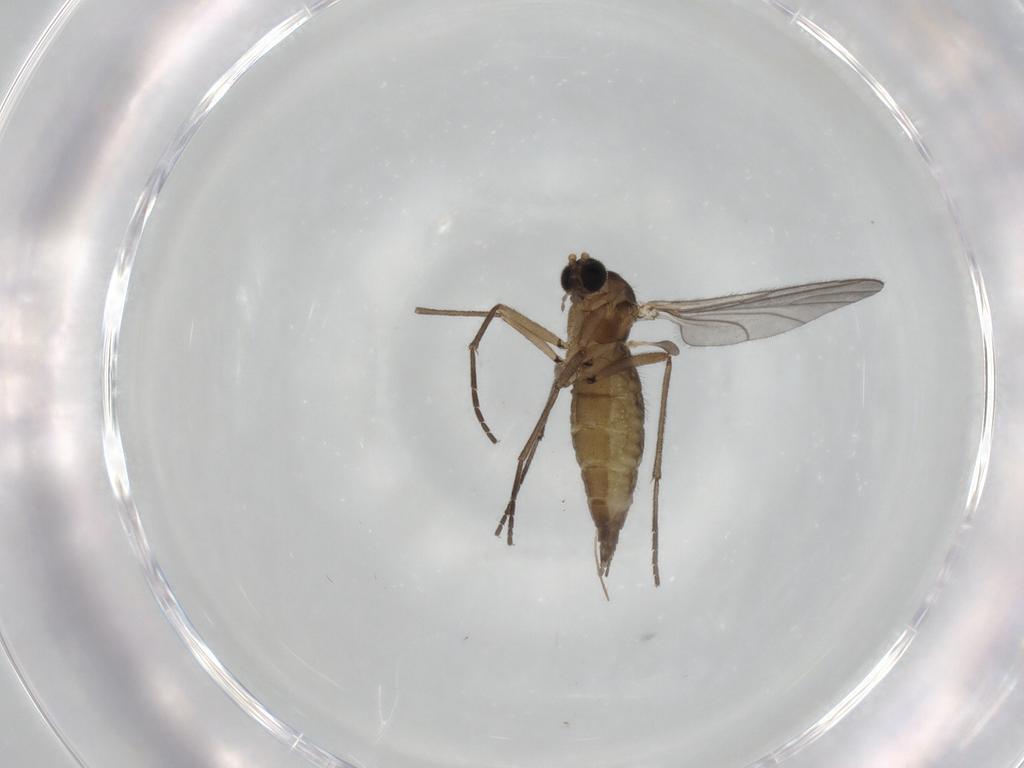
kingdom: Animalia
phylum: Arthropoda
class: Insecta
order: Diptera
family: Sciaridae
